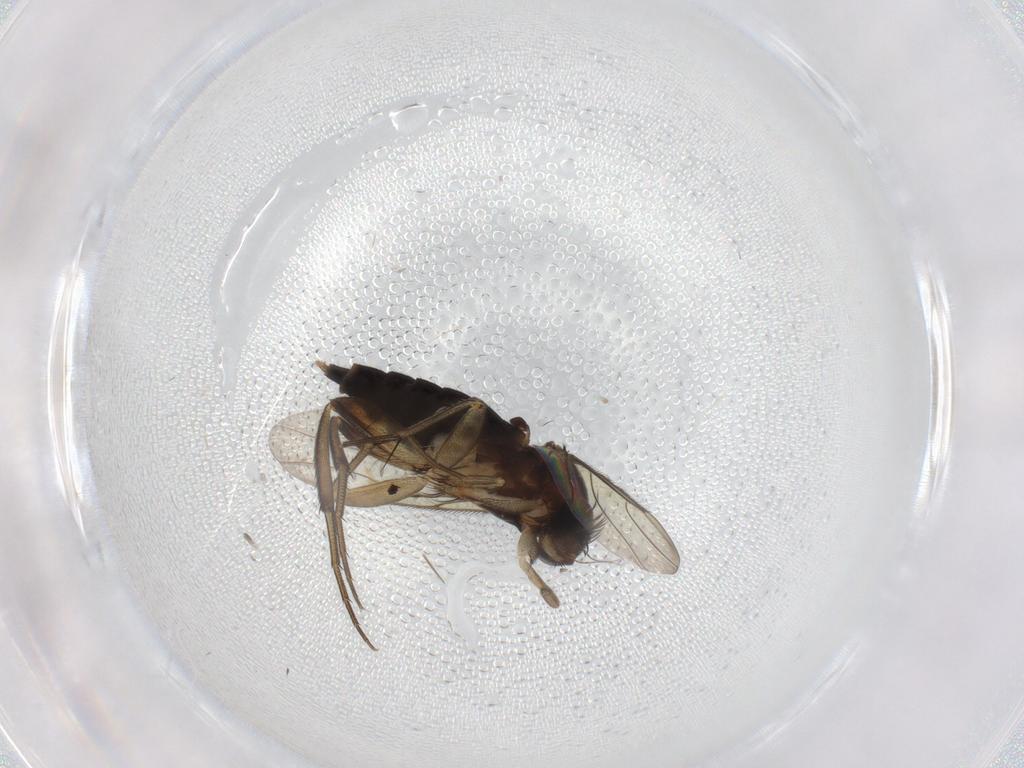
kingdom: Animalia
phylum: Arthropoda
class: Insecta
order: Diptera
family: Phoridae
